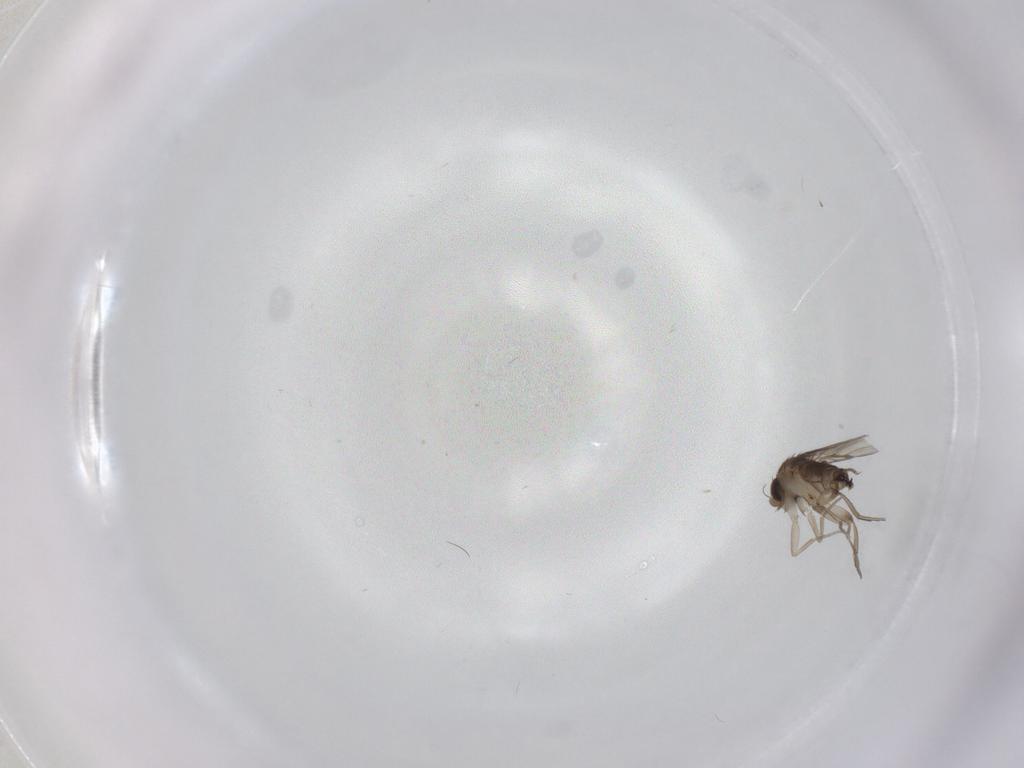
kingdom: Animalia
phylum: Arthropoda
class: Insecta
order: Diptera
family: Phoridae
